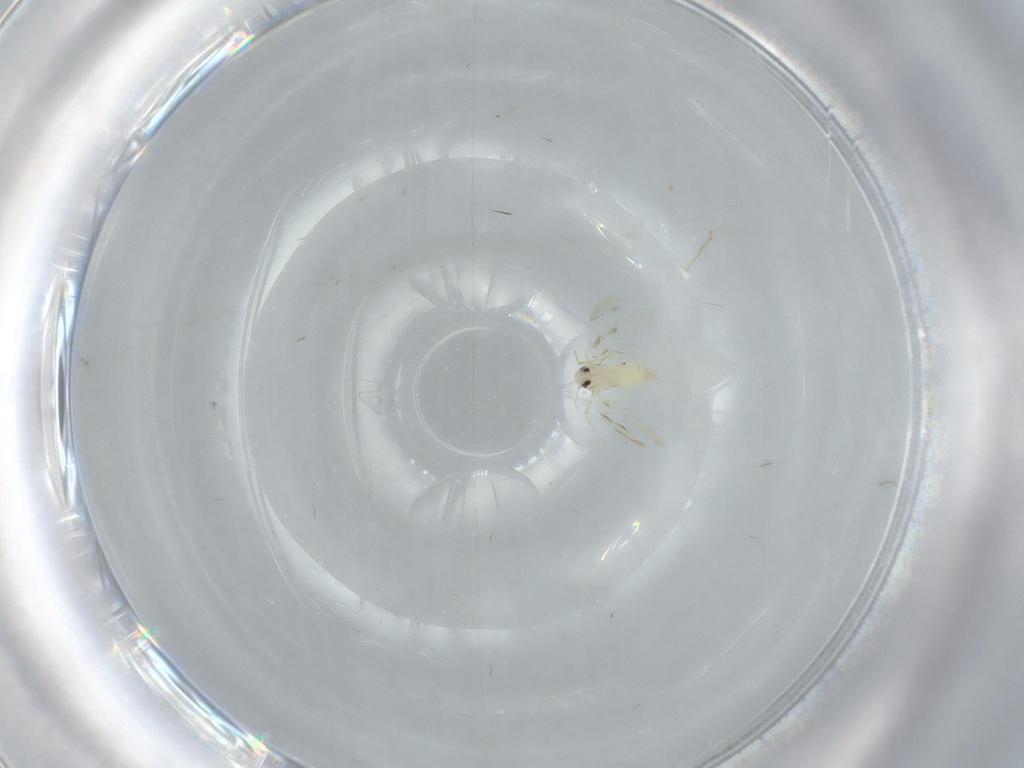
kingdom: Animalia
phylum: Arthropoda
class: Insecta
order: Hemiptera
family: Aleyrodidae
